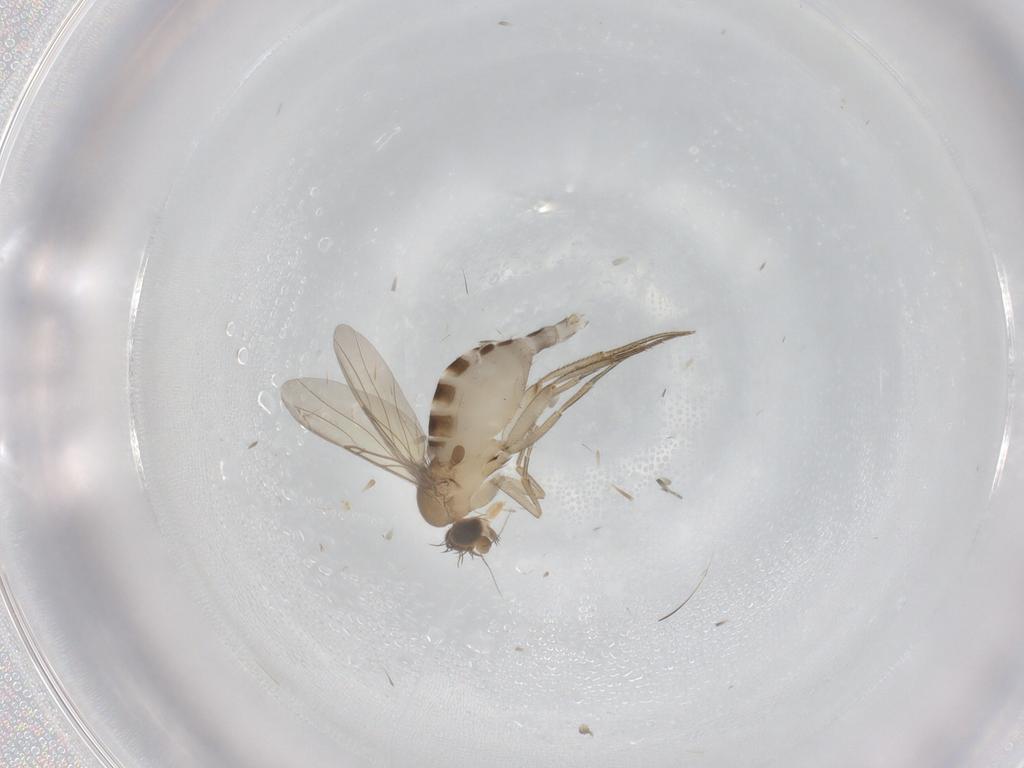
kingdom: Animalia
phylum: Arthropoda
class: Insecta
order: Diptera
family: Phoridae
